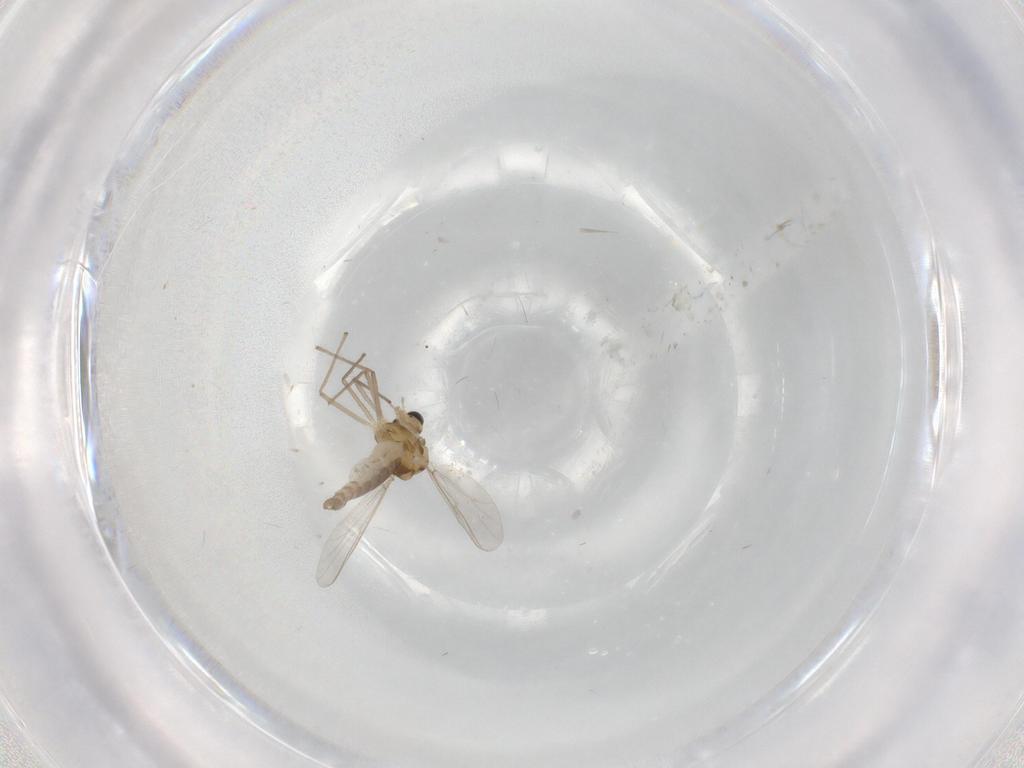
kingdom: Animalia
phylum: Arthropoda
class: Insecta
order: Diptera
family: Chironomidae
